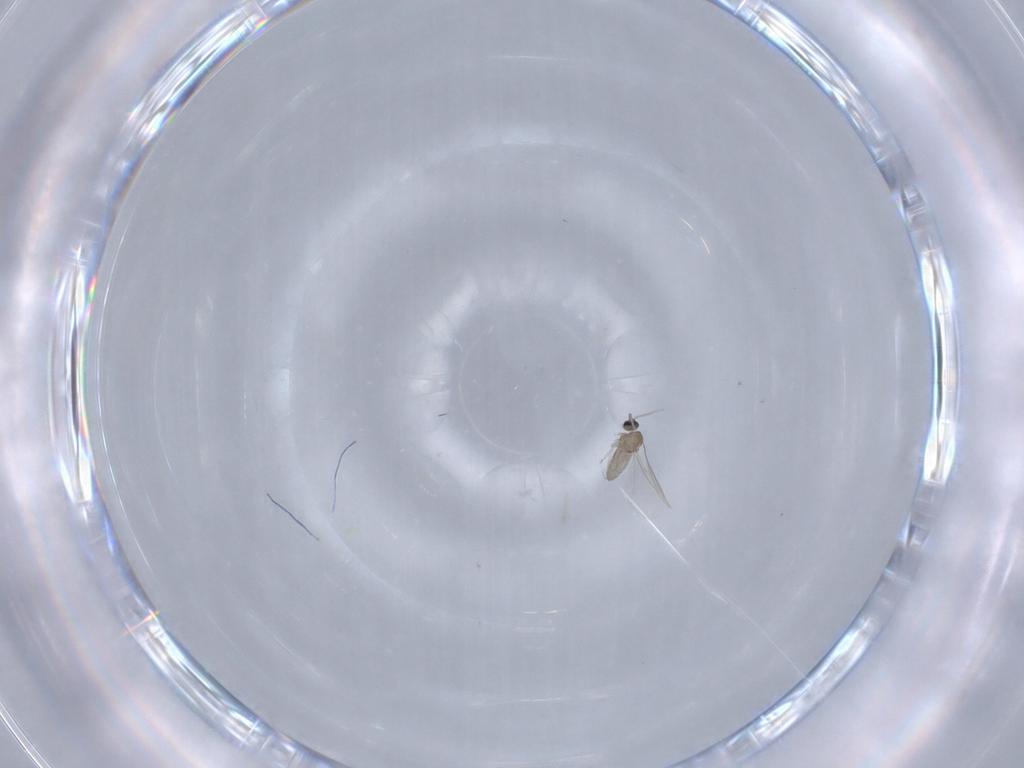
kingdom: Animalia
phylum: Arthropoda
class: Insecta
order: Diptera
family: Cecidomyiidae
